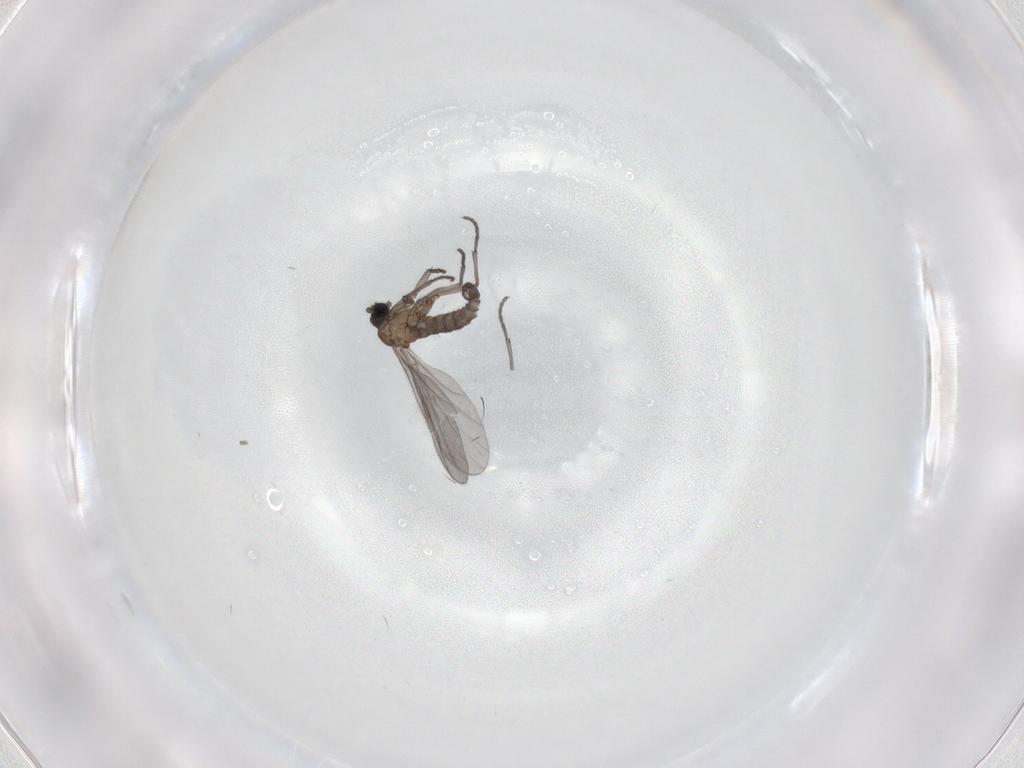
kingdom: Animalia
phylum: Arthropoda
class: Insecta
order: Diptera
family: Sciaridae
